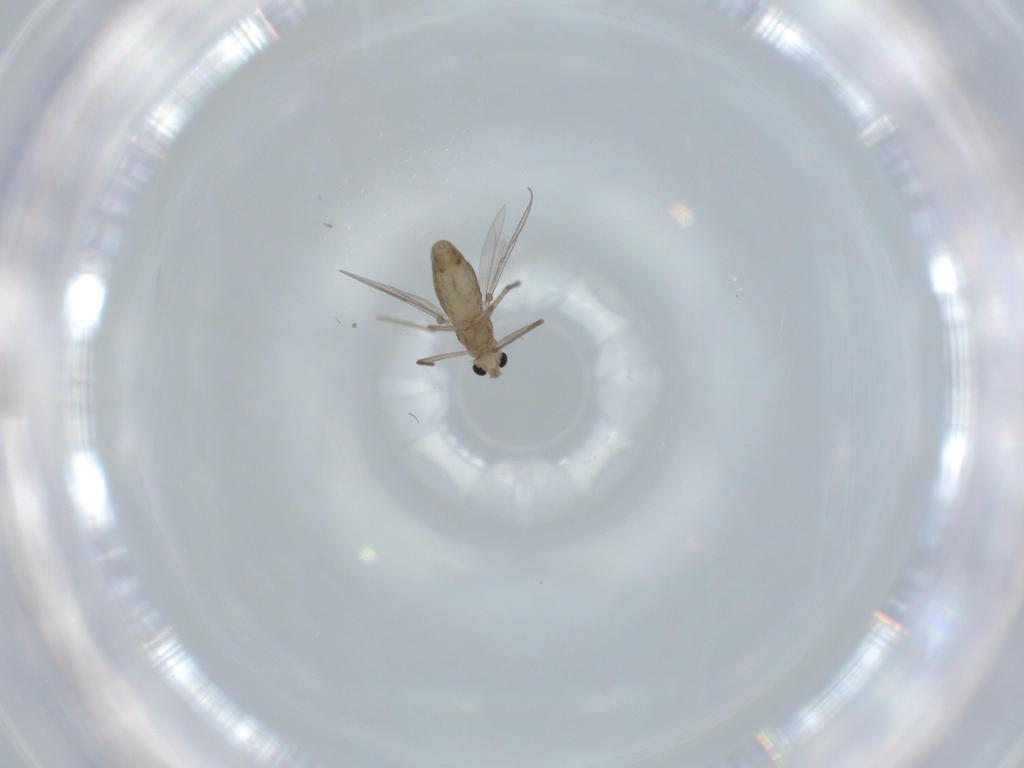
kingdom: Animalia
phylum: Arthropoda
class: Insecta
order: Diptera
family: Chironomidae
